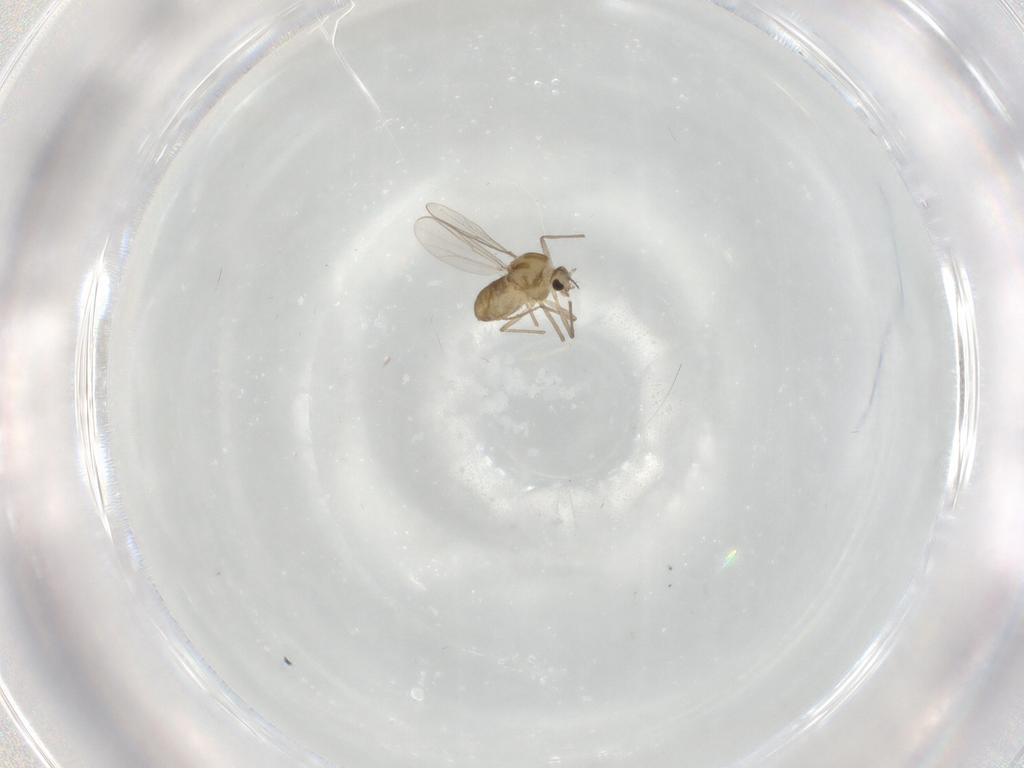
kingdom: Animalia
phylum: Arthropoda
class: Insecta
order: Diptera
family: Chironomidae
